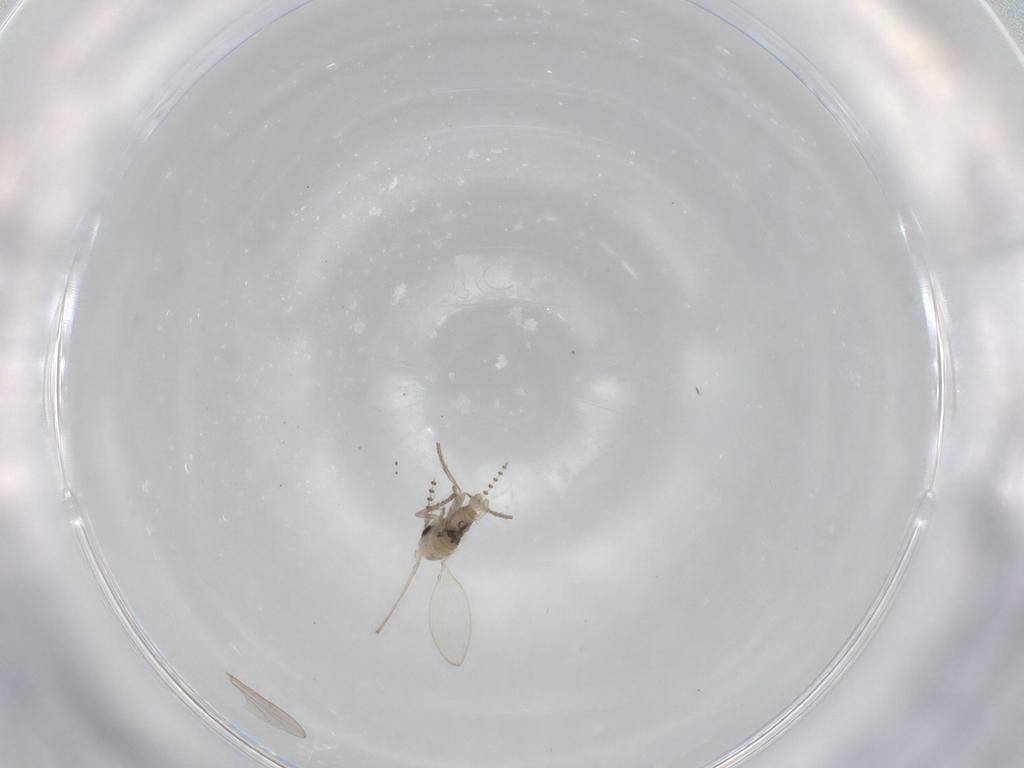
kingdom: Animalia
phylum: Arthropoda
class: Insecta
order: Diptera
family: Psychodidae
